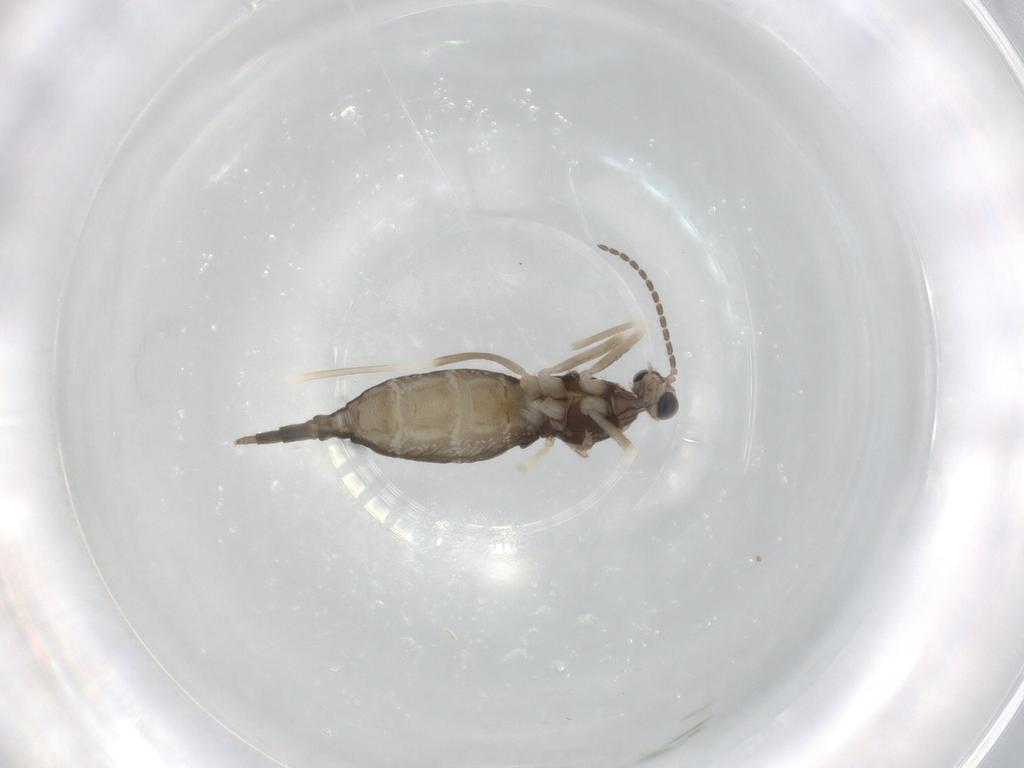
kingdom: Animalia
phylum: Arthropoda
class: Insecta
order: Diptera
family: Cecidomyiidae
